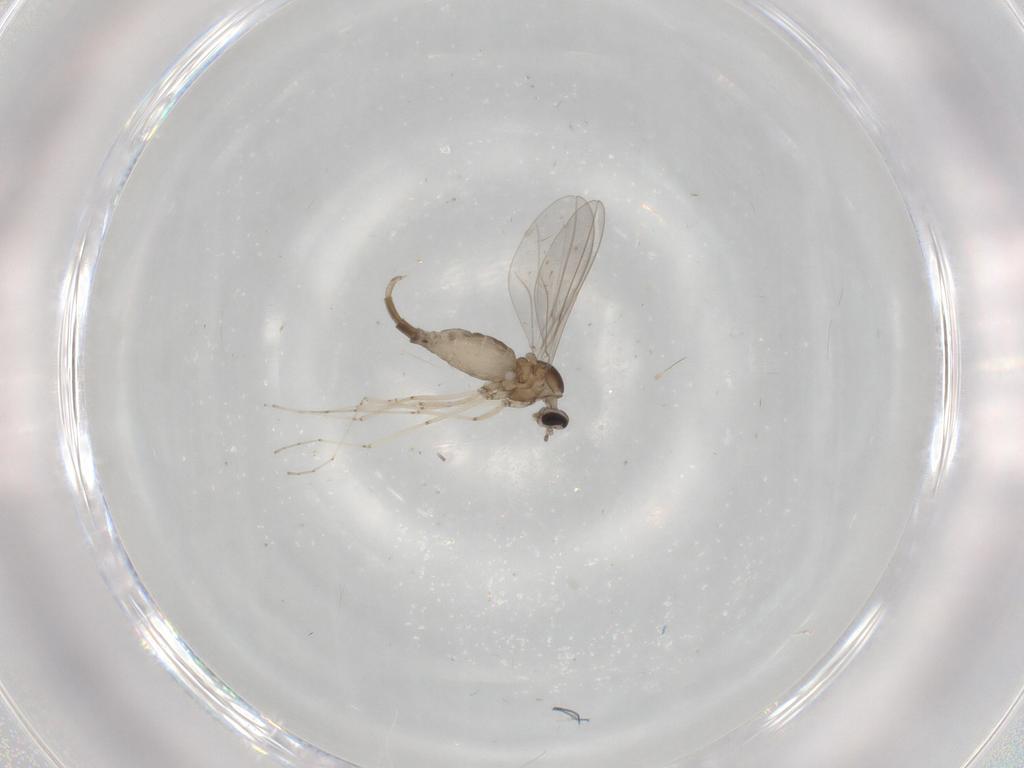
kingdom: Animalia
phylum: Arthropoda
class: Insecta
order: Diptera
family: Cecidomyiidae
